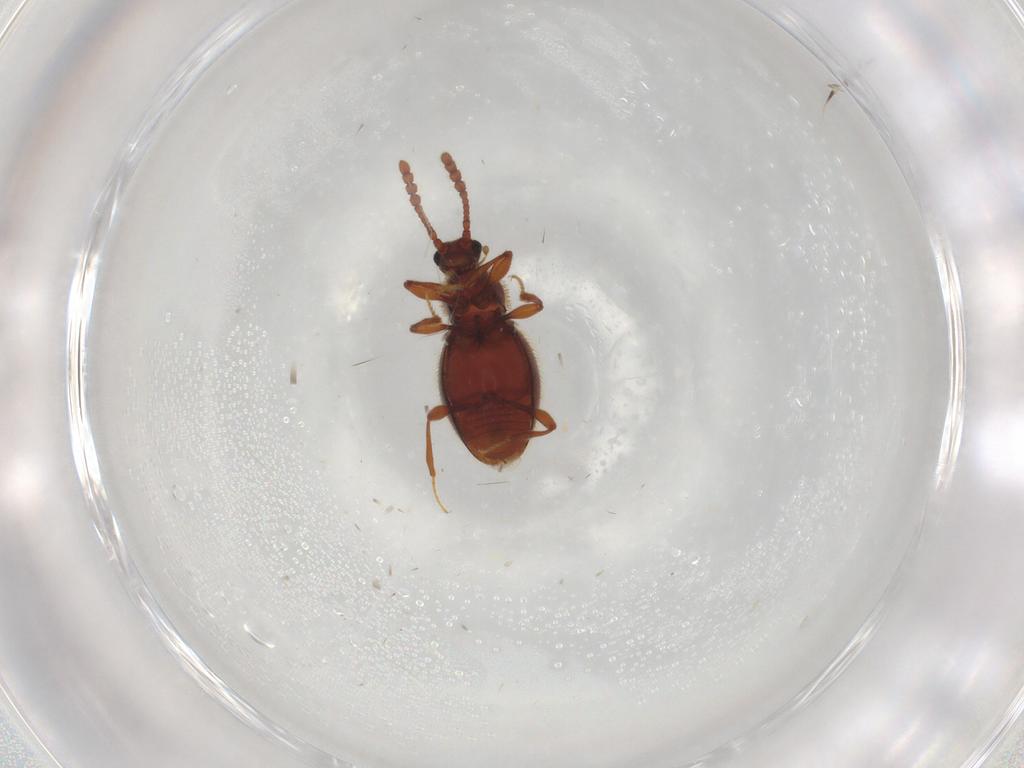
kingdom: Animalia
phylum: Arthropoda
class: Insecta
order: Coleoptera
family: Staphylinidae
